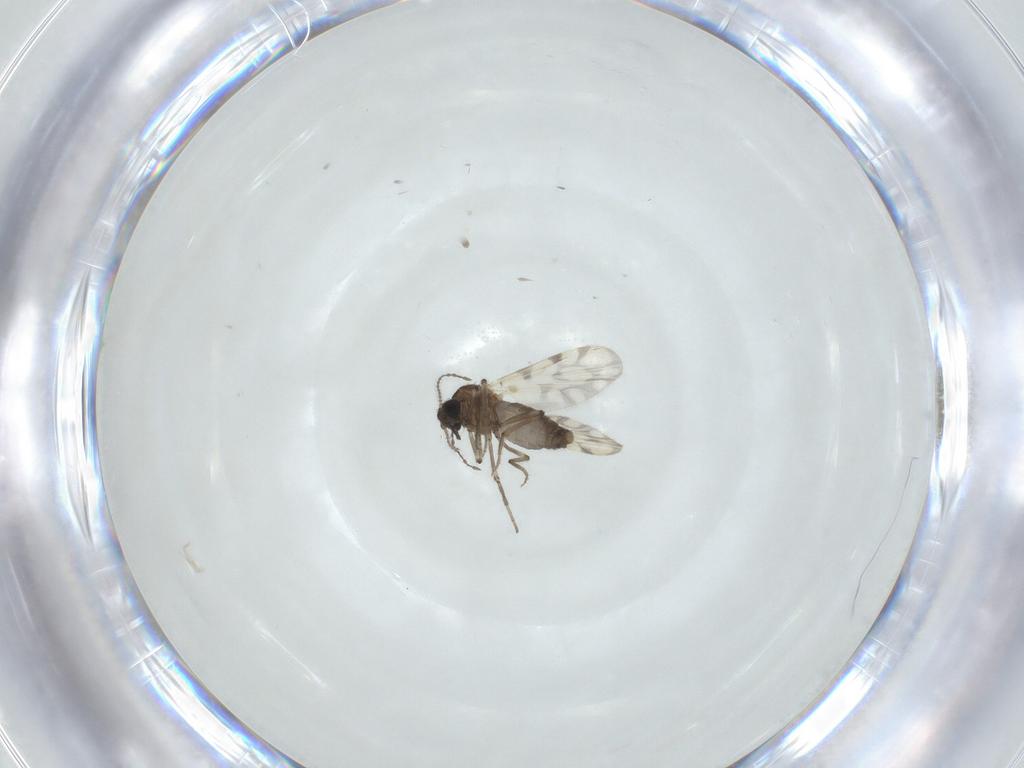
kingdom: Animalia
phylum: Arthropoda
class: Insecta
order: Diptera
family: Ceratopogonidae
